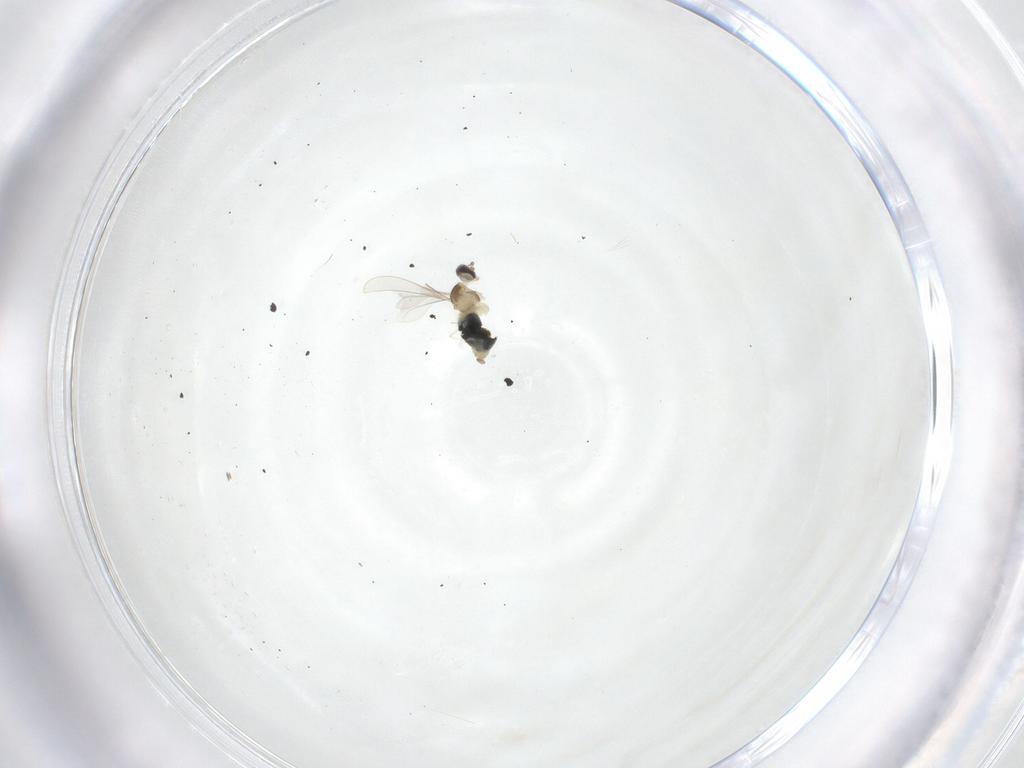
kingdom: Animalia
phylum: Arthropoda
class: Insecta
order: Diptera
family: Cecidomyiidae
